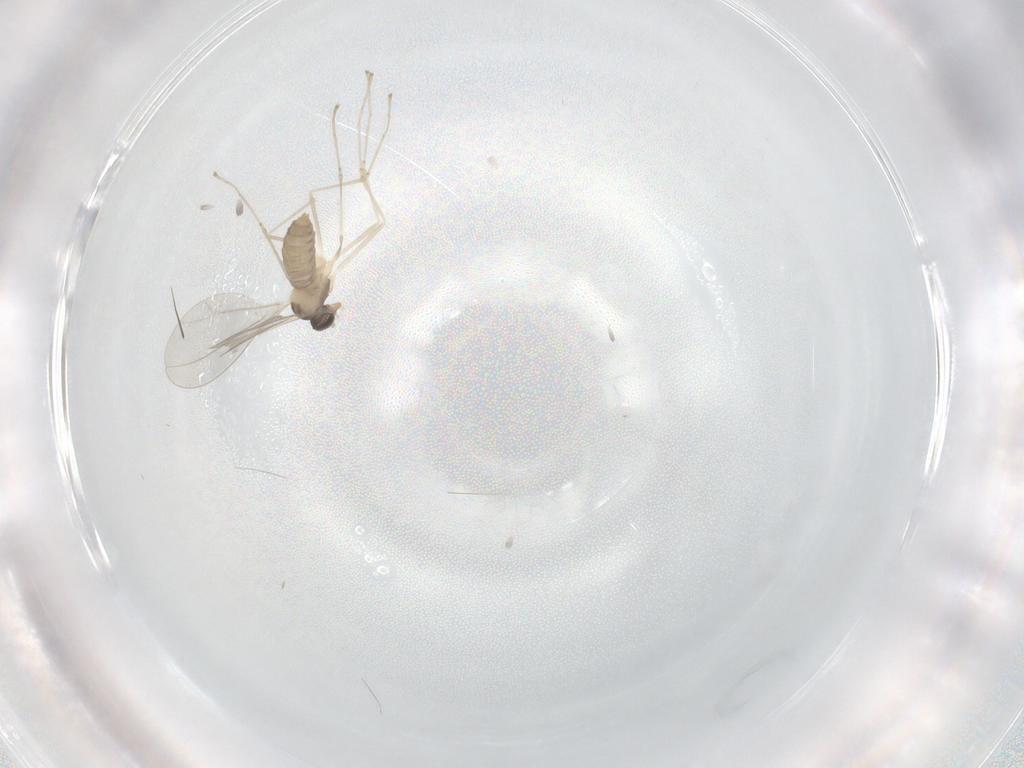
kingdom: Animalia
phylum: Arthropoda
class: Insecta
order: Diptera
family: Cecidomyiidae
